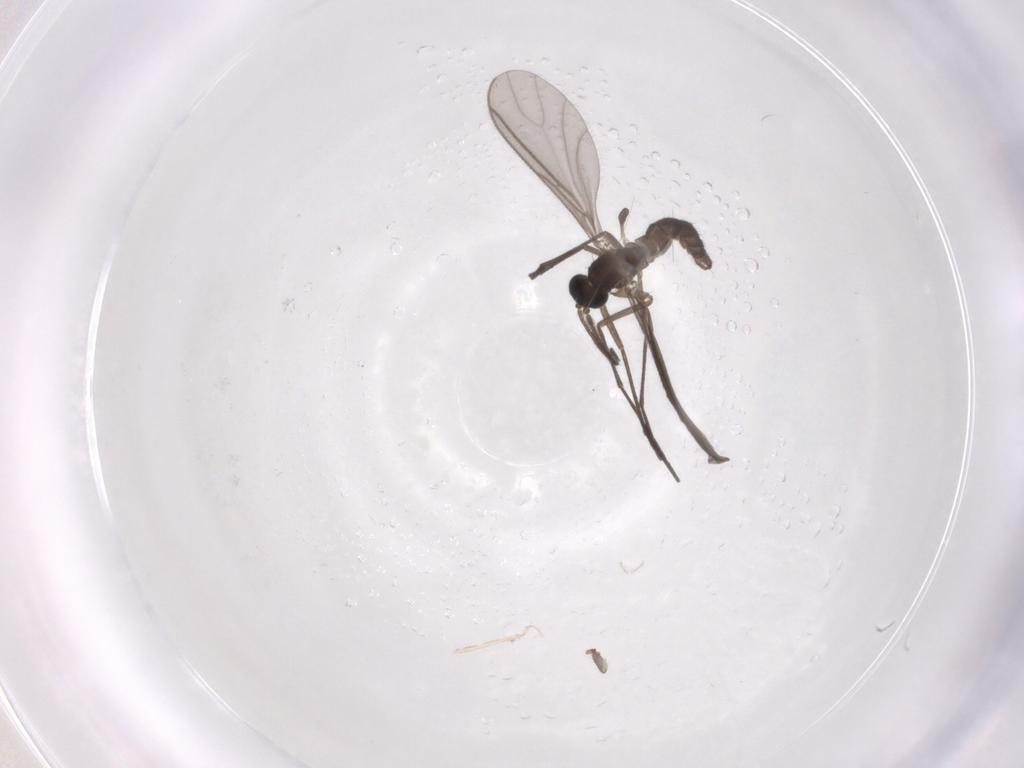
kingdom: Animalia
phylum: Arthropoda
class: Insecta
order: Diptera
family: Sciaridae
